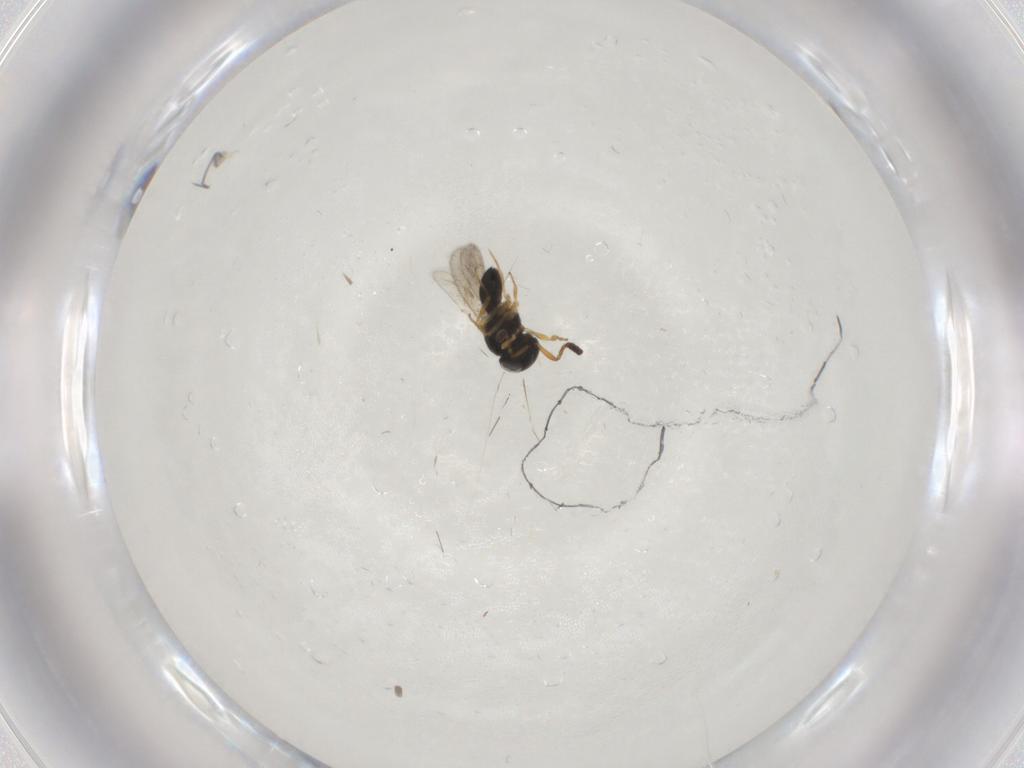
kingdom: Animalia
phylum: Arthropoda
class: Insecta
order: Hymenoptera
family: Scelionidae
